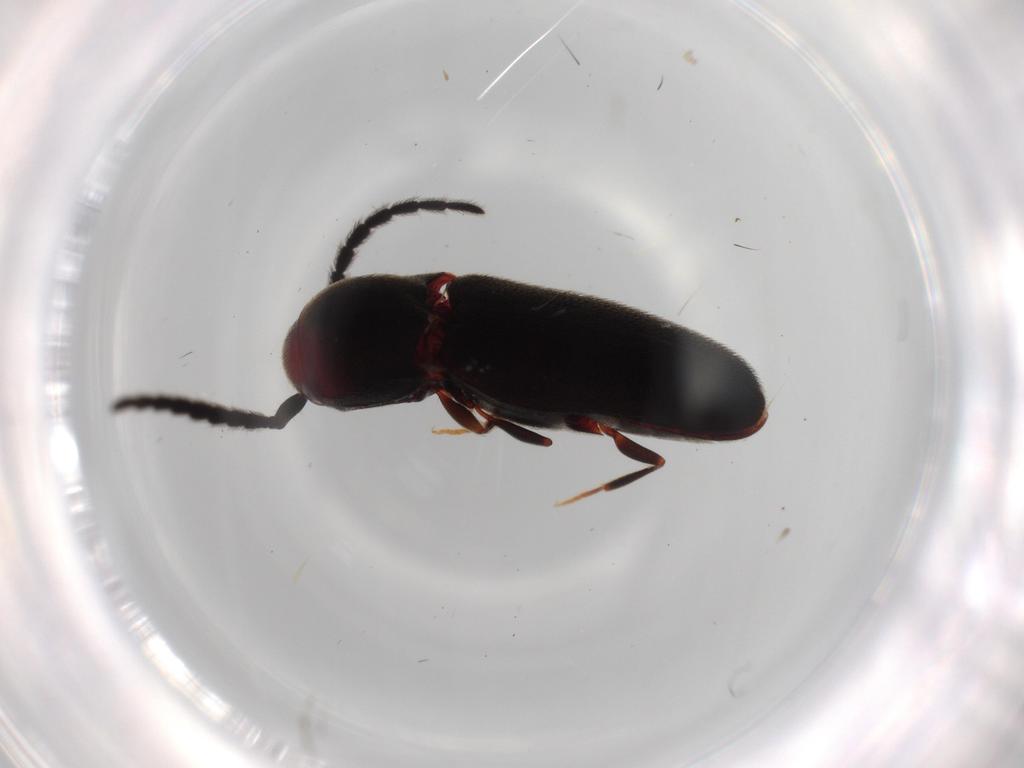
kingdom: Animalia
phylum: Arthropoda
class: Insecta
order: Coleoptera
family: Eucnemidae
